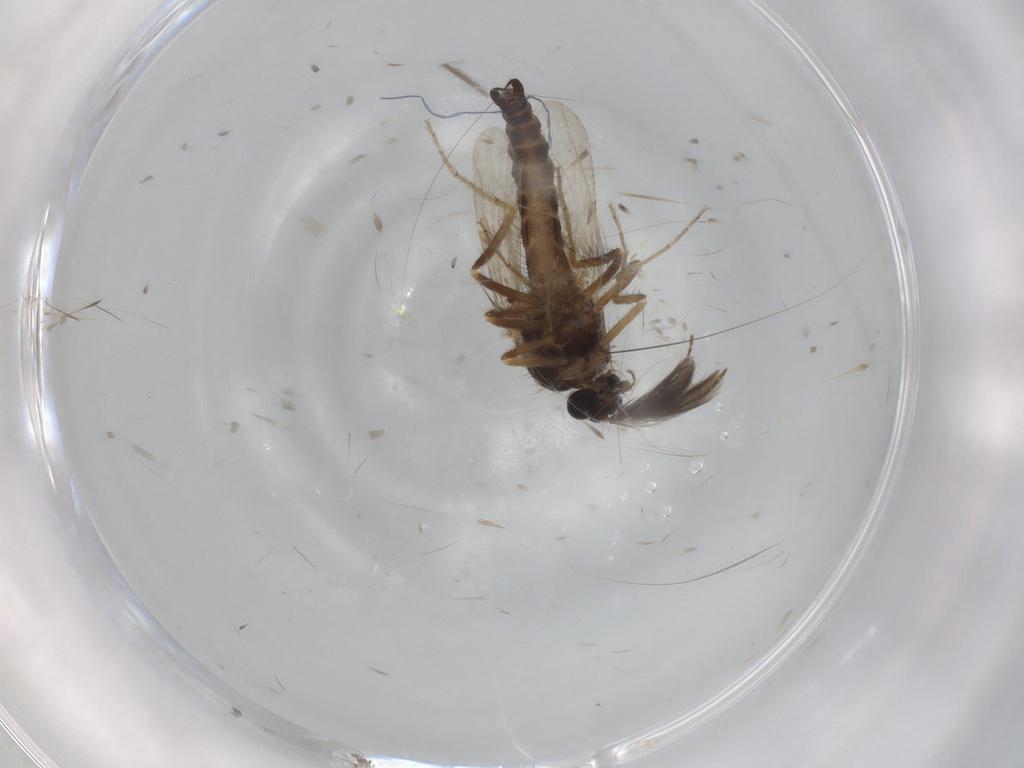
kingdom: Animalia
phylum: Arthropoda
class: Insecta
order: Diptera
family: Ceratopogonidae
